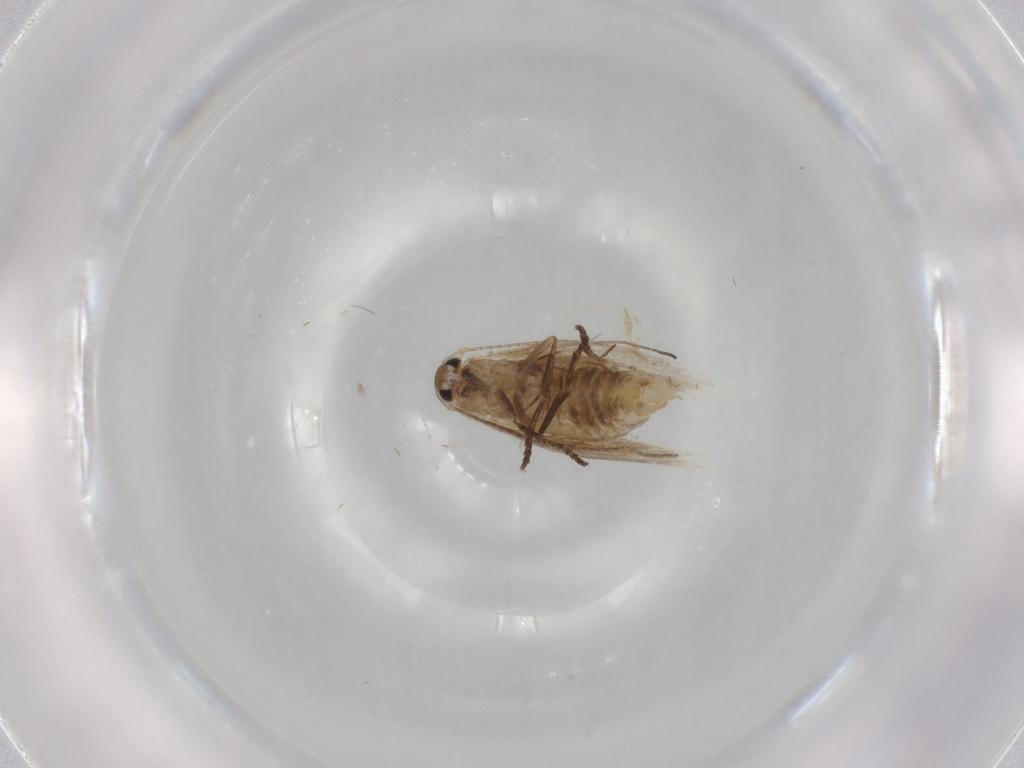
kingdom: Animalia
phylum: Arthropoda
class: Insecta
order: Lepidoptera
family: Bucculatricidae
